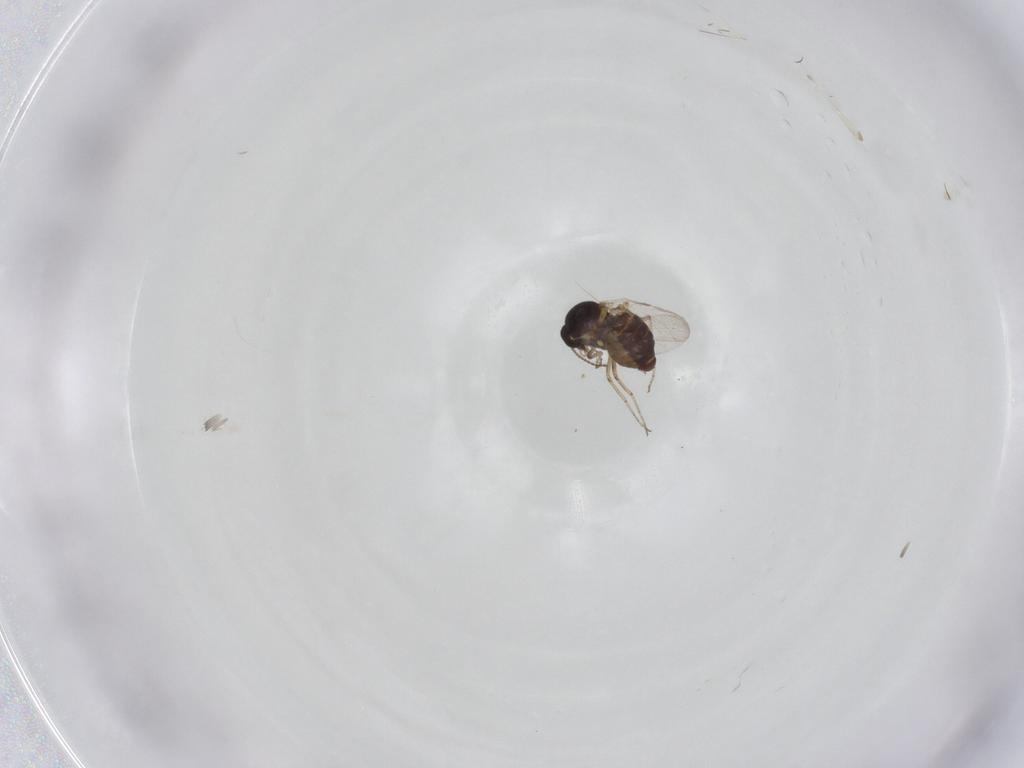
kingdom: Animalia
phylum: Arthropoda
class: Insecta
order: Diptera
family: Ceratopogonidae
